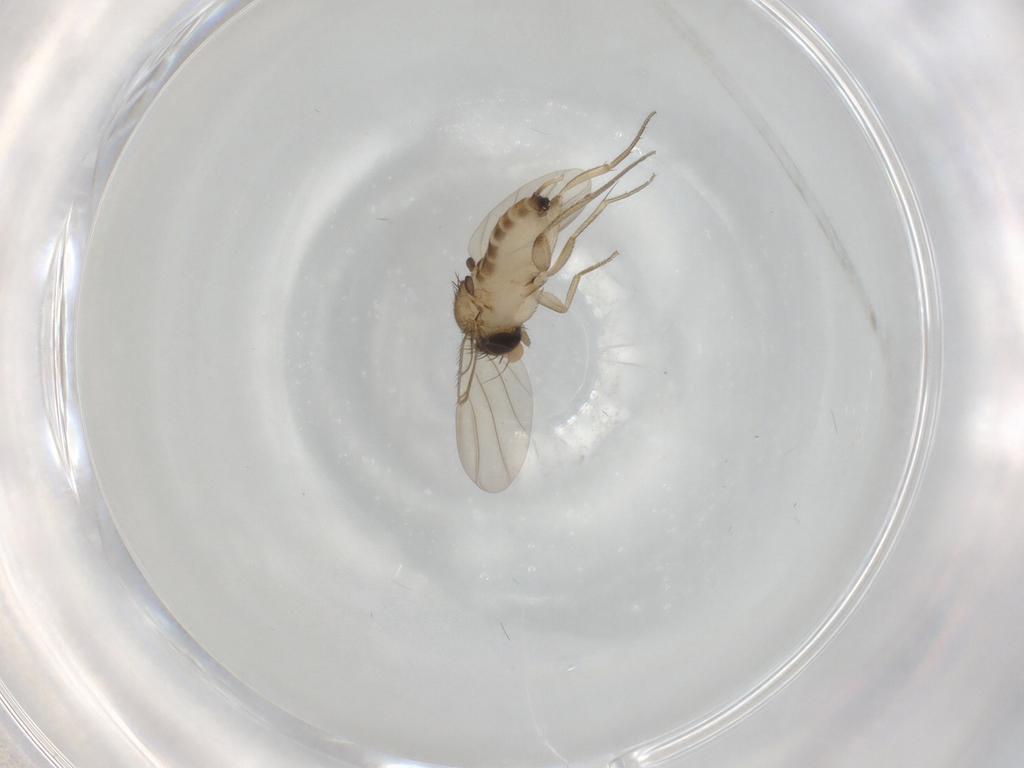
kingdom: Animalia
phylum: Arthropoda
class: Insecta
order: Diptera
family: Phoridae
